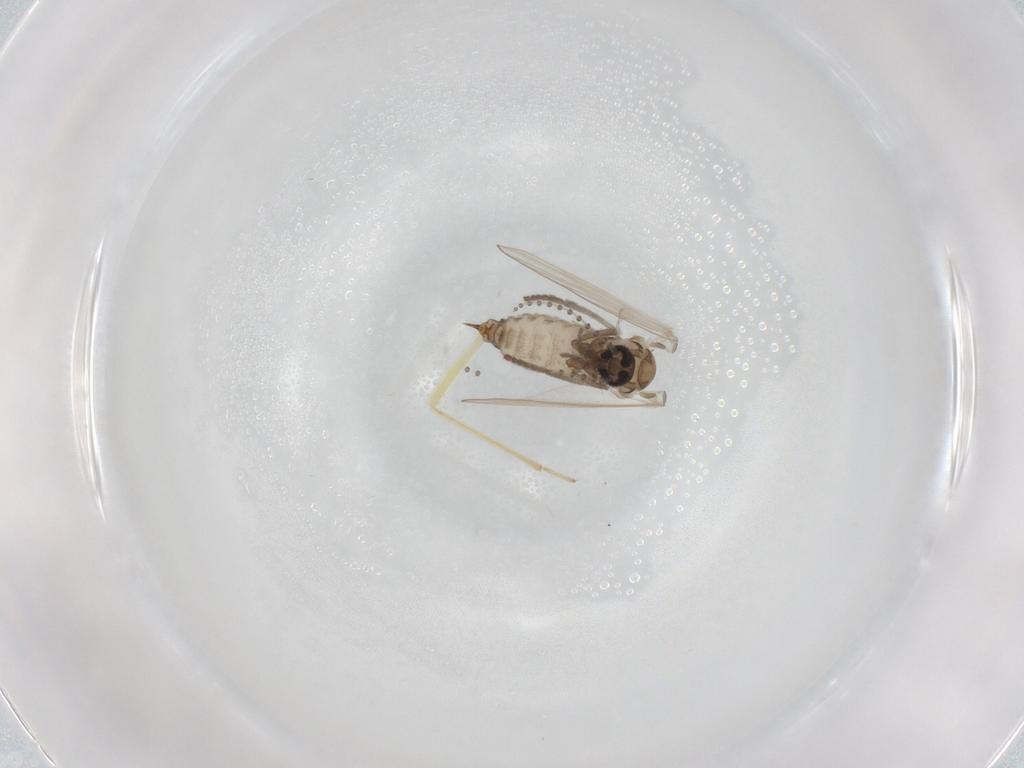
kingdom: Animalia
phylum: Arthropoda
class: Insecta
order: Diptera
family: Psychodidae
